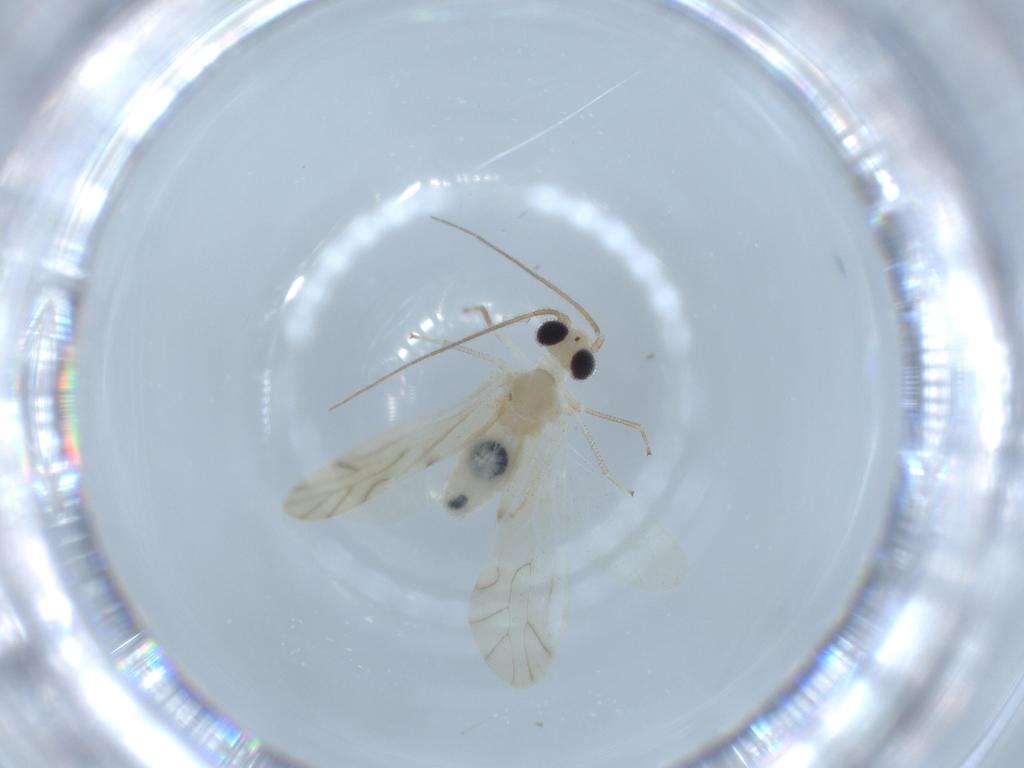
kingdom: Animalia
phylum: Arthropoda
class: Insecta
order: Psocodea
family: Caeciliusidae
